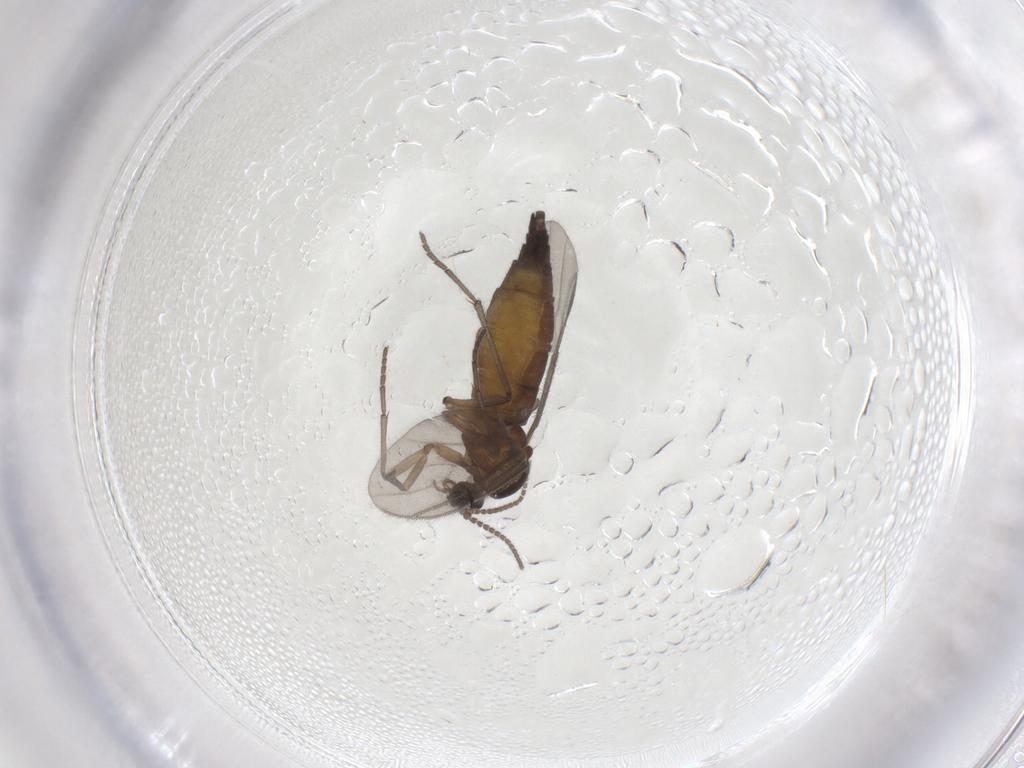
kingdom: Animalia
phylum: Arthropoda
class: Insecta
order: Diptera
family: Sciaridae
